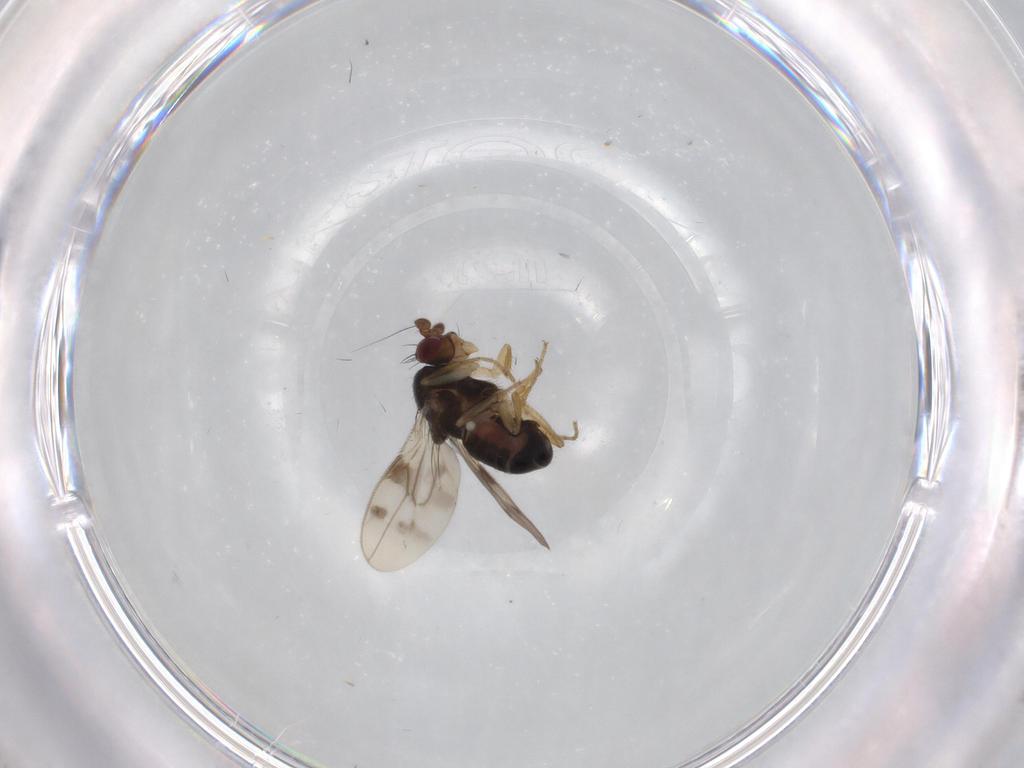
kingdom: Animalia
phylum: Arthropoda
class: Insecta
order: Diptera
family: Sphaeroceridae
